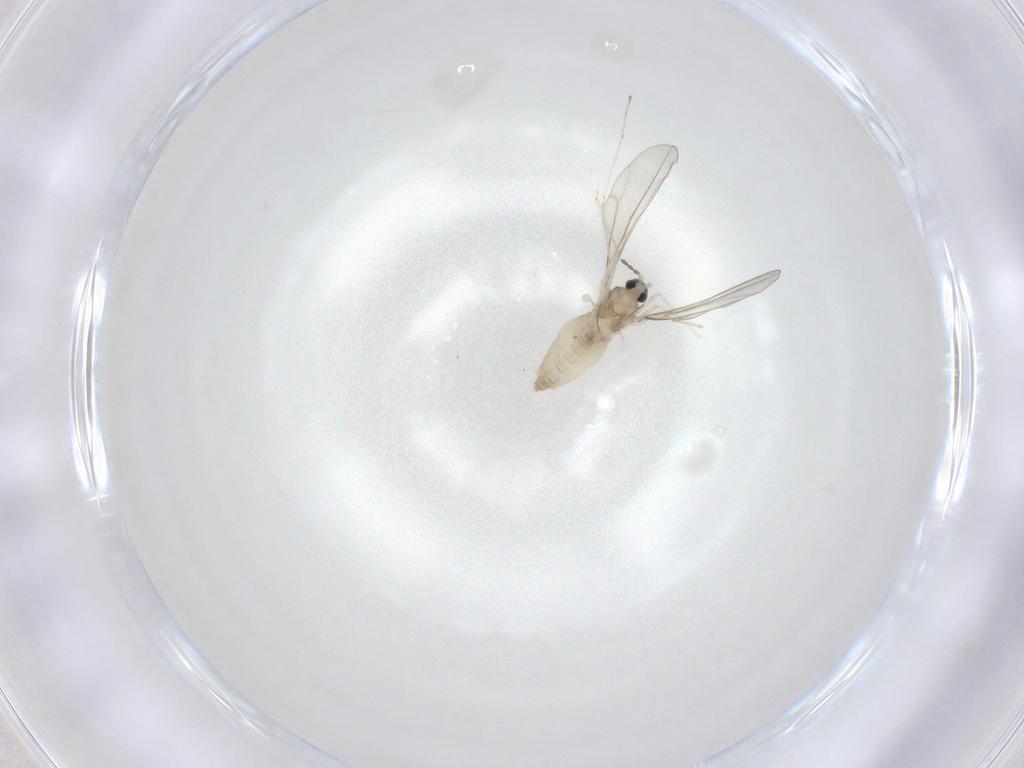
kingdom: Animalia
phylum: Arthropoda
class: Insecta
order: Diptera
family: Cecidomyiidae
